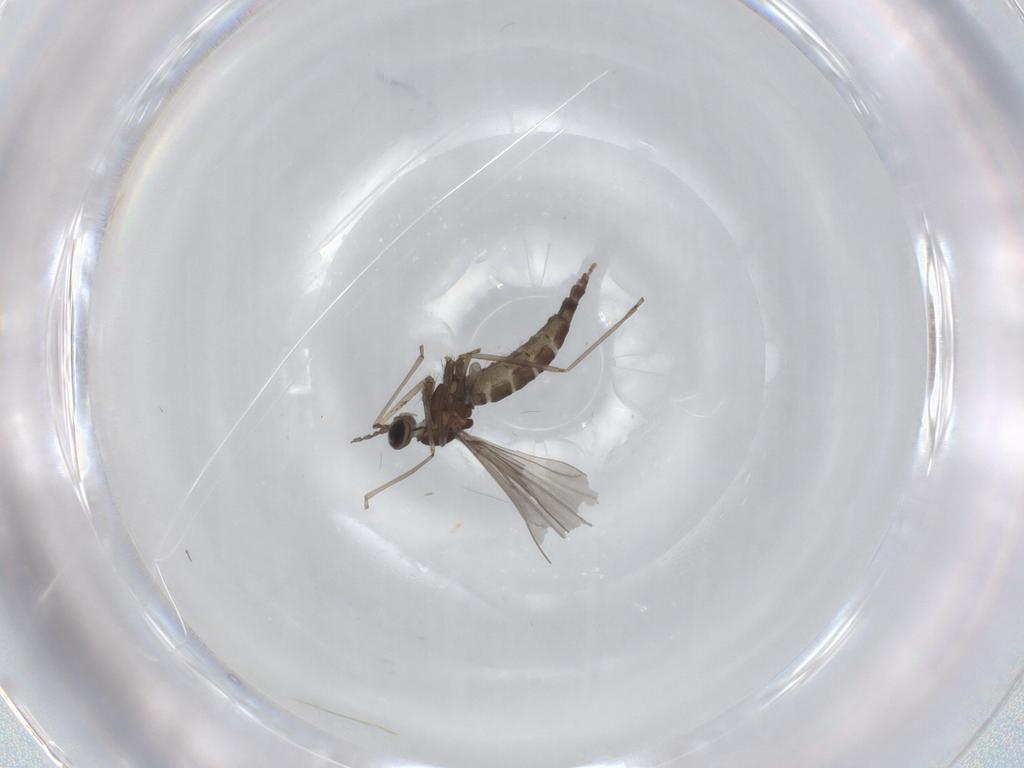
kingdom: Animalia
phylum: Arthropoda
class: Insecta
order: Diptera
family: Cecidomyiidae
